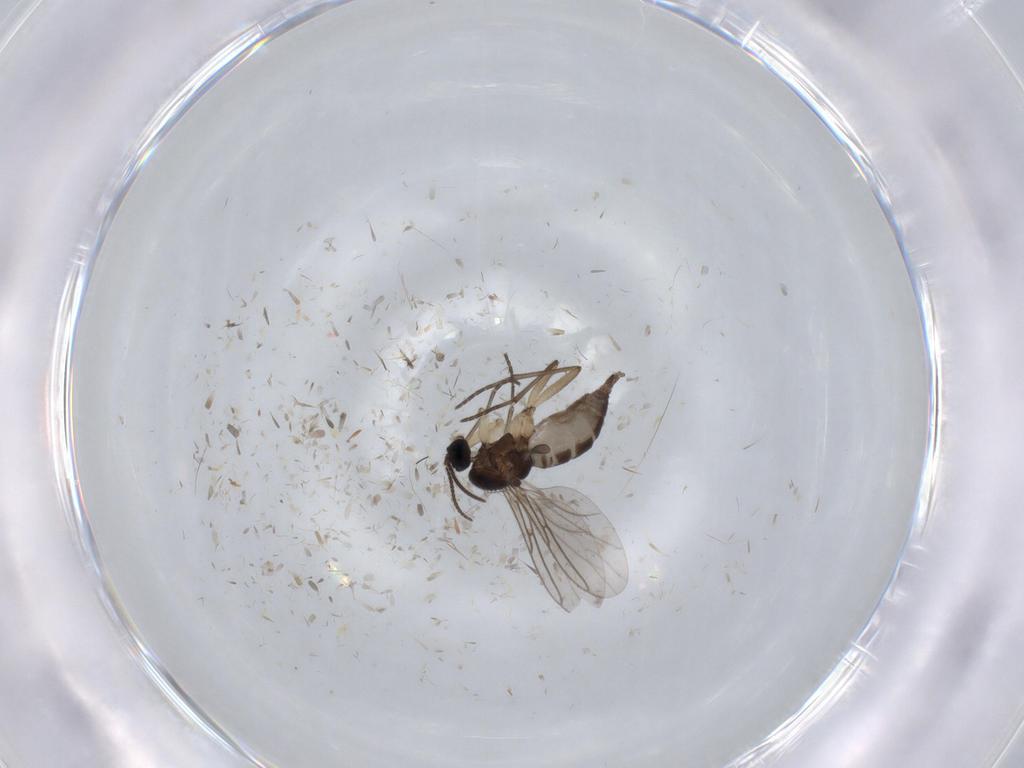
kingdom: Animalia
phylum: Arthropoda
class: Insecta
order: Diptera
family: Sciaridae
